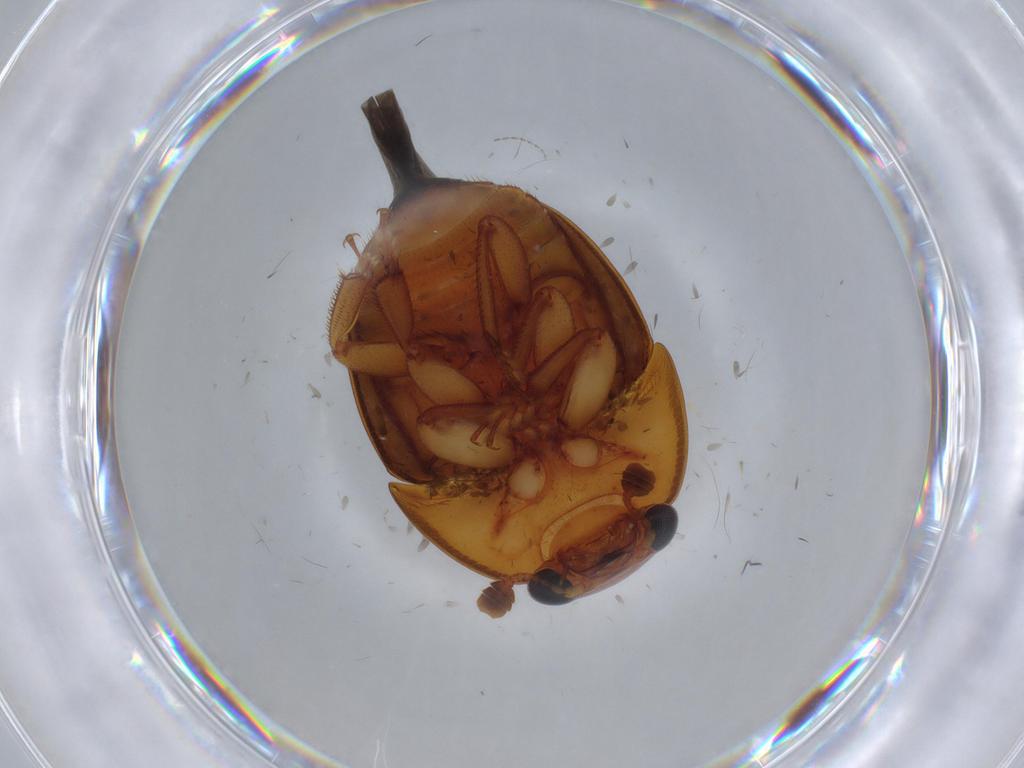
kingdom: Animalia
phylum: Arthropoda
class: Insecta
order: Coleoptera
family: Nitidulidae
